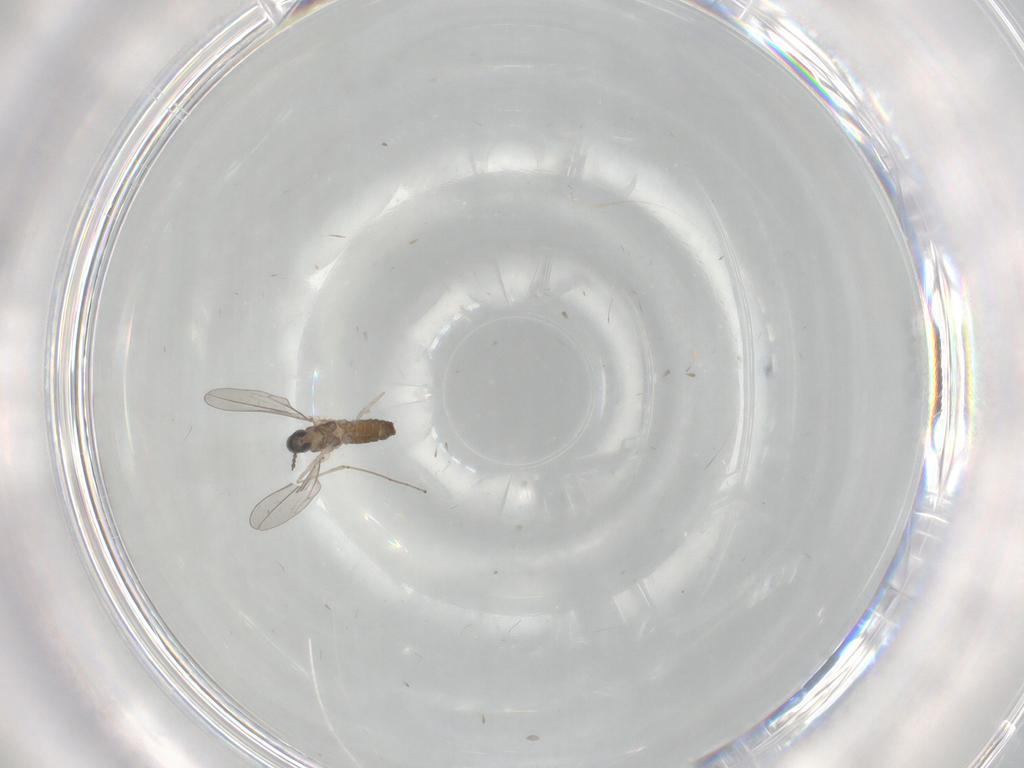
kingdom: Animalia
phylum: Arthropoda
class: Insecta
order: Diptera
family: Cecidomyiidae
